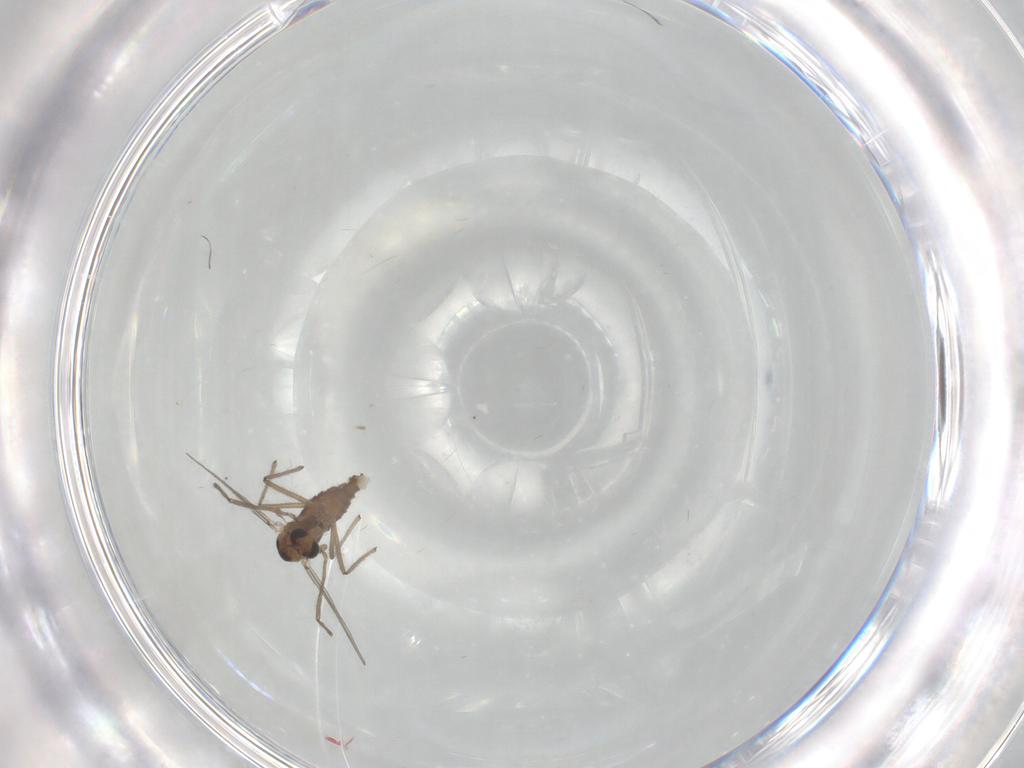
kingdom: Animalia
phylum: Arthropoda
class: Insecta
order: Diptera
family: Chironomidae
